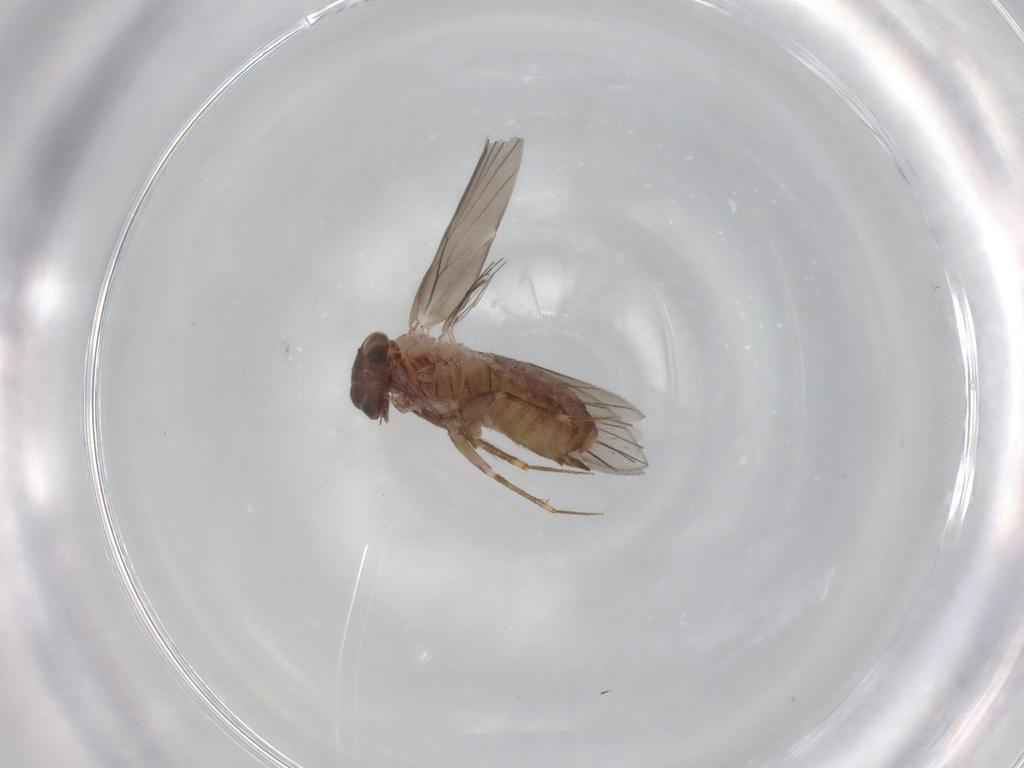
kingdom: Animalia
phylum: Arthropoda
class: Insecta
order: Psocodea
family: Lepidopsocidae
